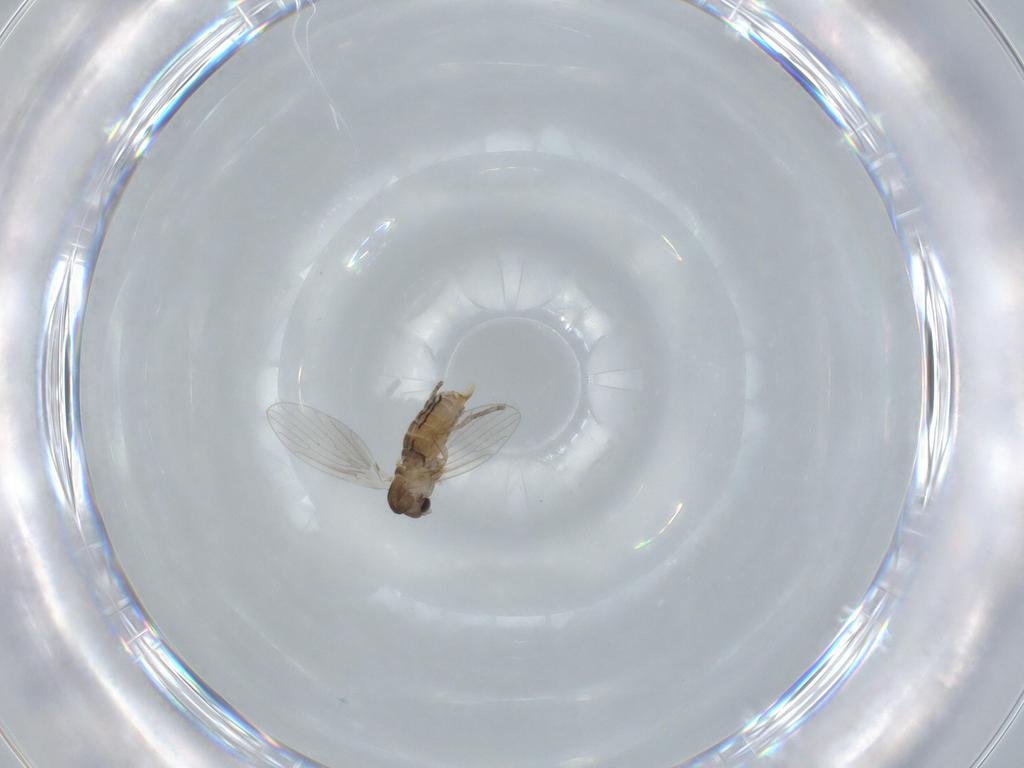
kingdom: Animalia
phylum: Arthropoda
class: Insecta
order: Diptera
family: Psychodidae
